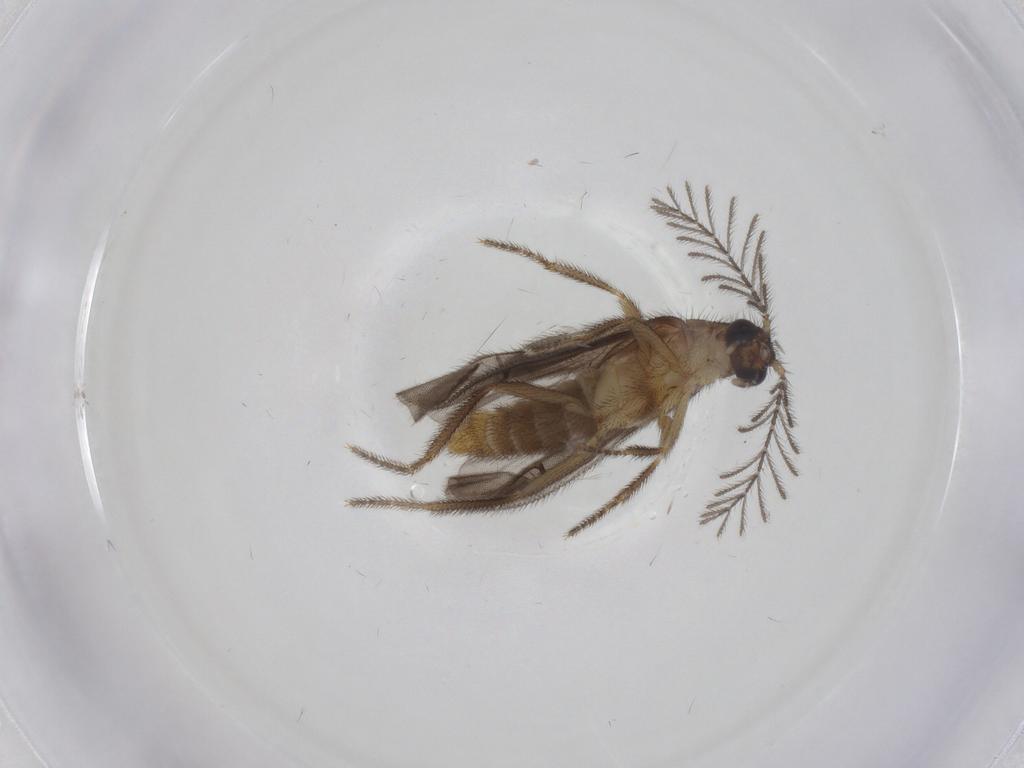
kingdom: Animalia
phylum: Arthropoda
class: Insecta
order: Coleoptera
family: Oedemeridae
